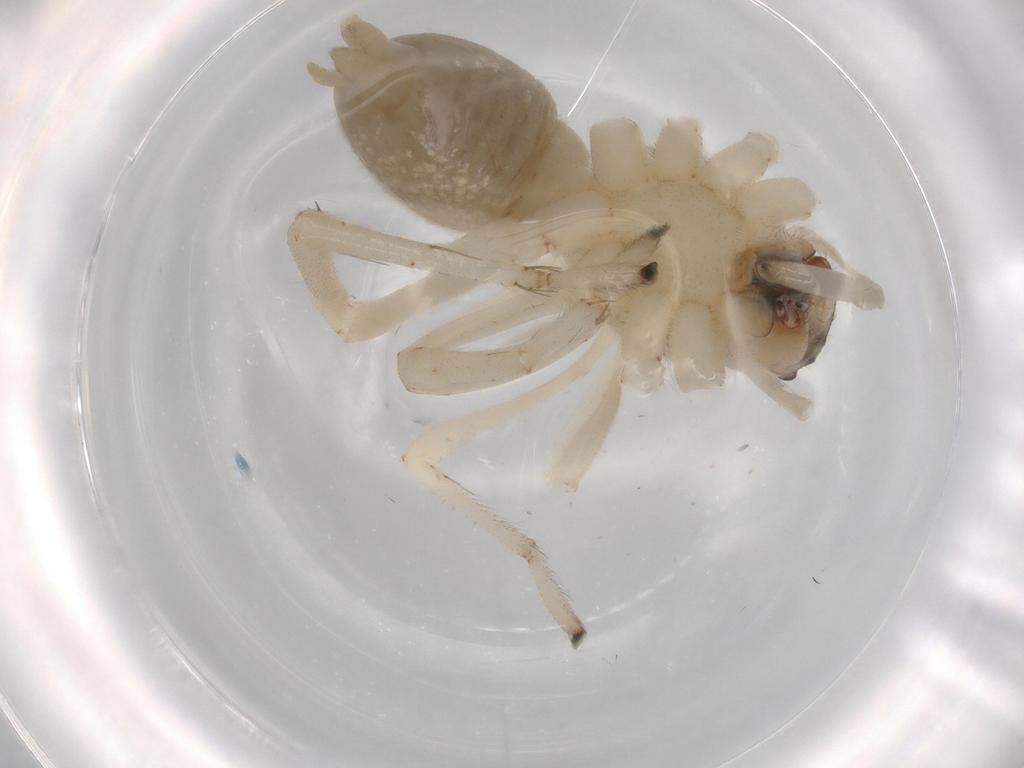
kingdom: Animalia
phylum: Arthropoda
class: Arachnida
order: Araneae
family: Cheiracanthiidae
